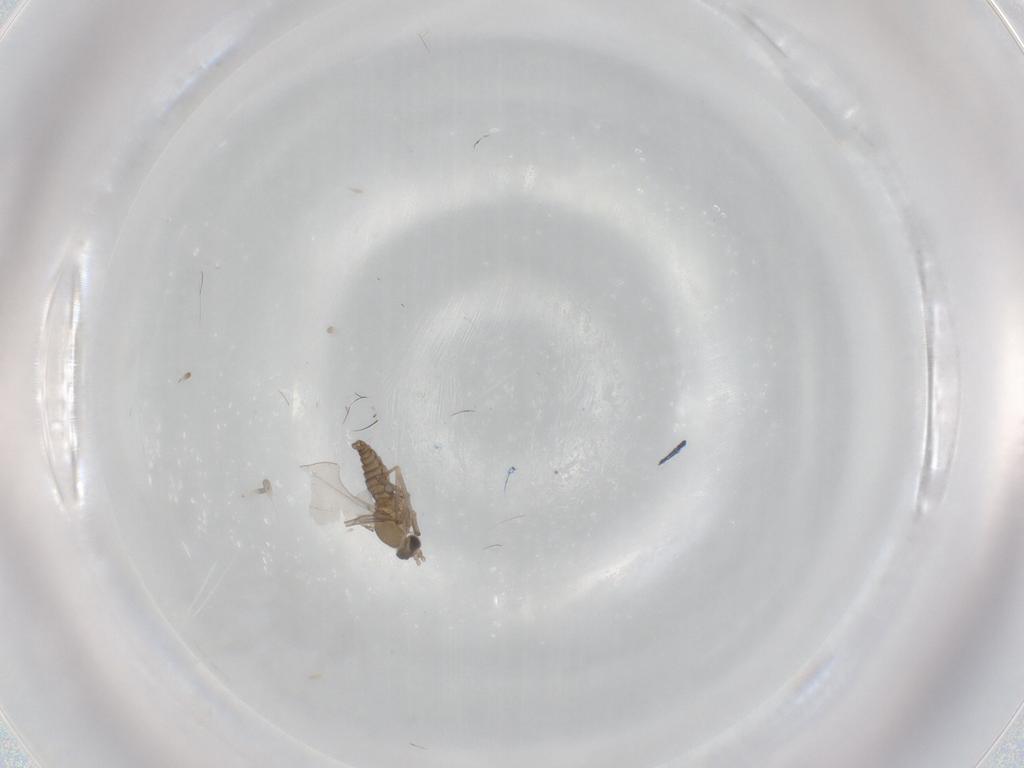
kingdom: Animalia
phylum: Arthropoda
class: Insecta
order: Diptera
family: Cecidomyiidae
